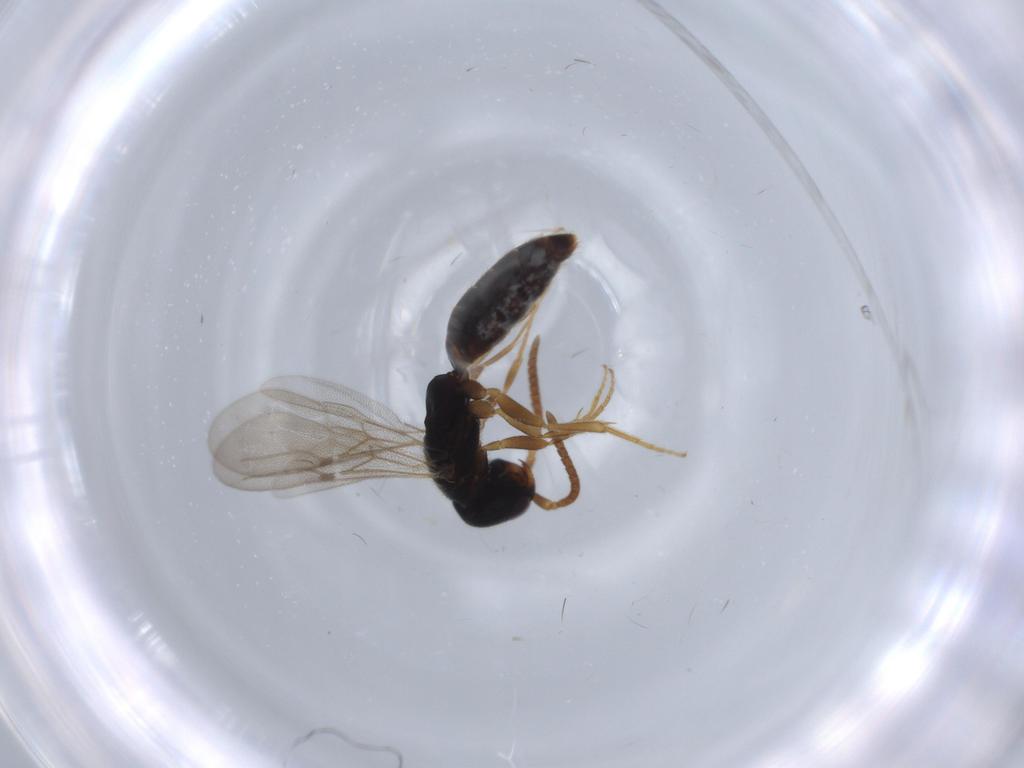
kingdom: Animalia
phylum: Arthropoda
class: Insecta
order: Hymenoptera
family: Bethylidae
